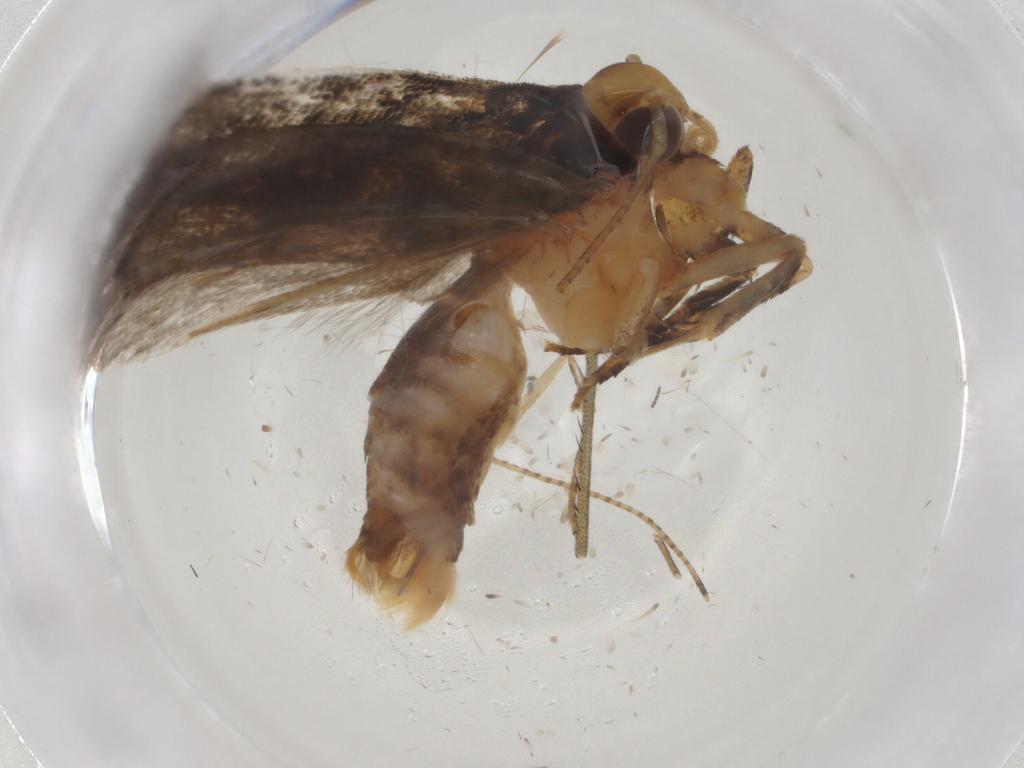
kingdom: Animalia
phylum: Arthropoda
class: Insecta
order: Lepidoptera
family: Gelechiidae
